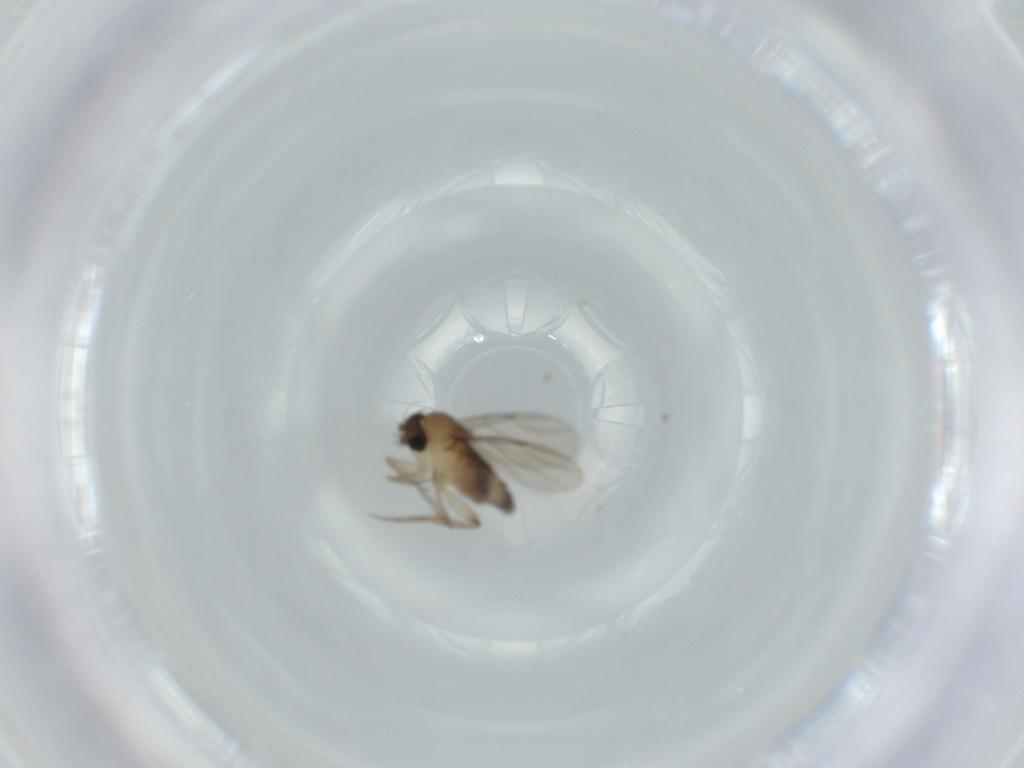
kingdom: Animalia
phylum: Arthropoda
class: Insecta
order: Diptera
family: Phoridae
